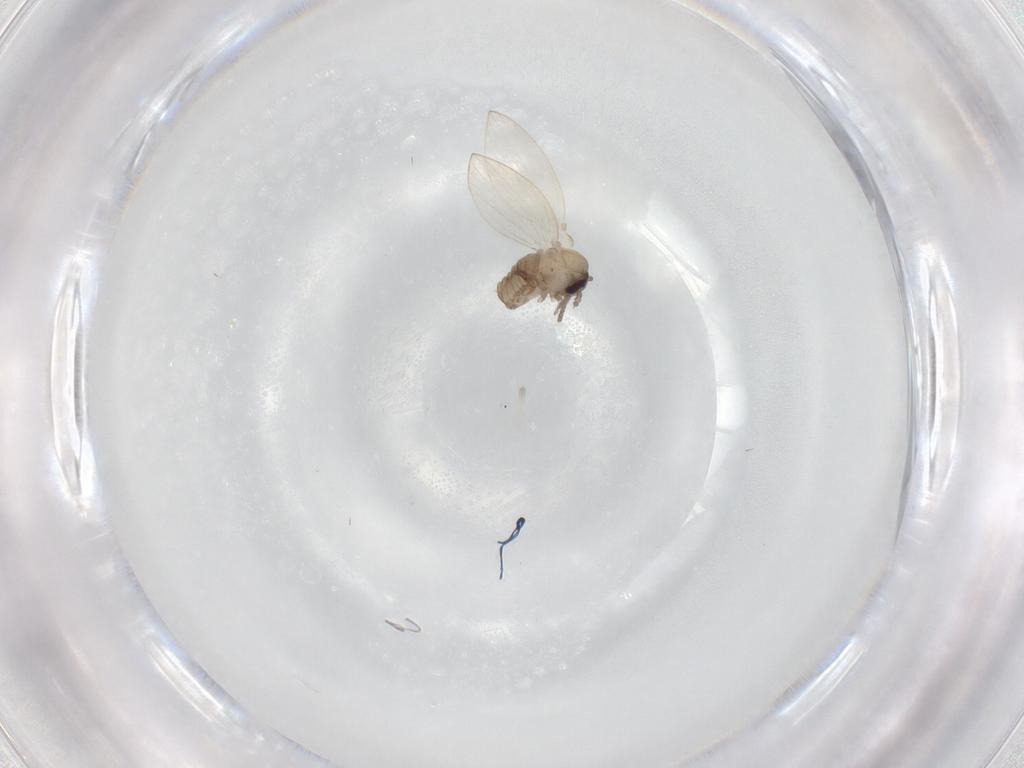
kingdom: Animalia
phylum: Arthropoda
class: Insecta
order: Diptera
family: Psychodidae
